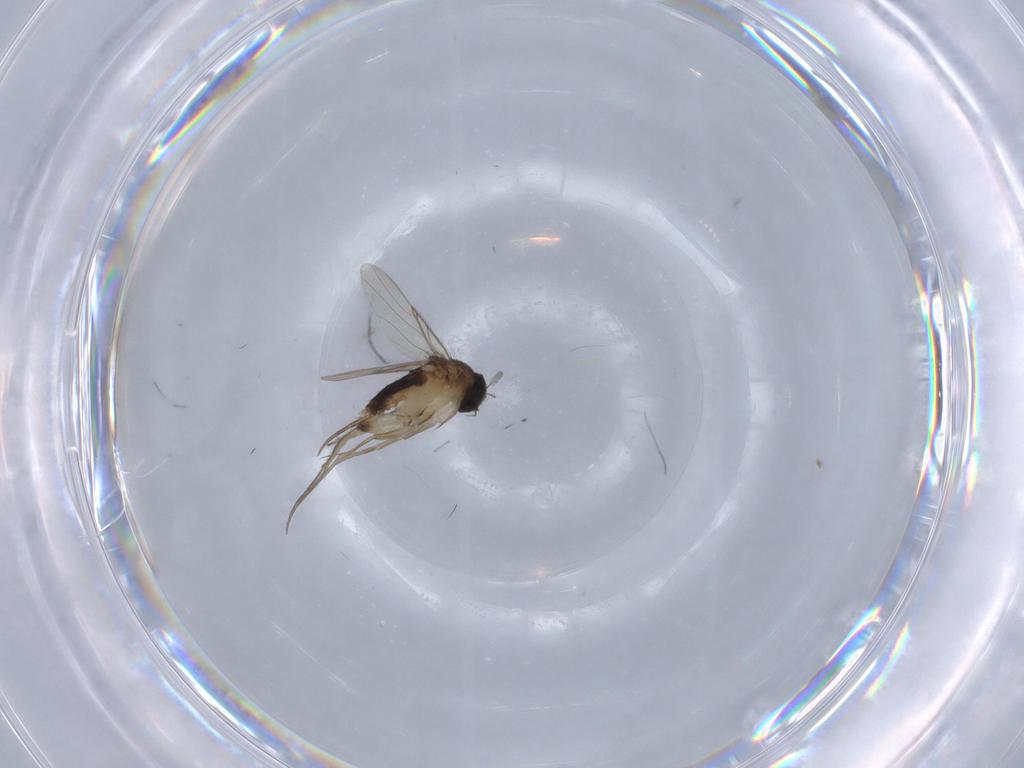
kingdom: Animalia
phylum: Arthropoda
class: Insecta
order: Diptera
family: Phoridae
